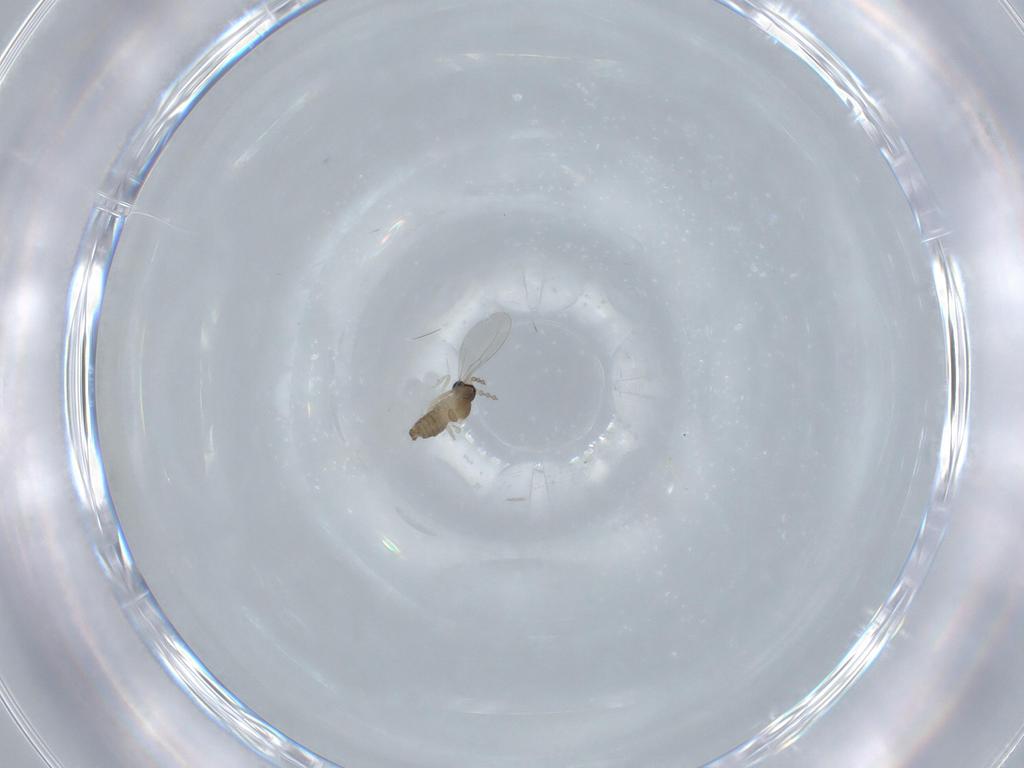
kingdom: Animalia
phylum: Arthropoda
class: Insecta
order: Diptera
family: Cecidomyiidae
